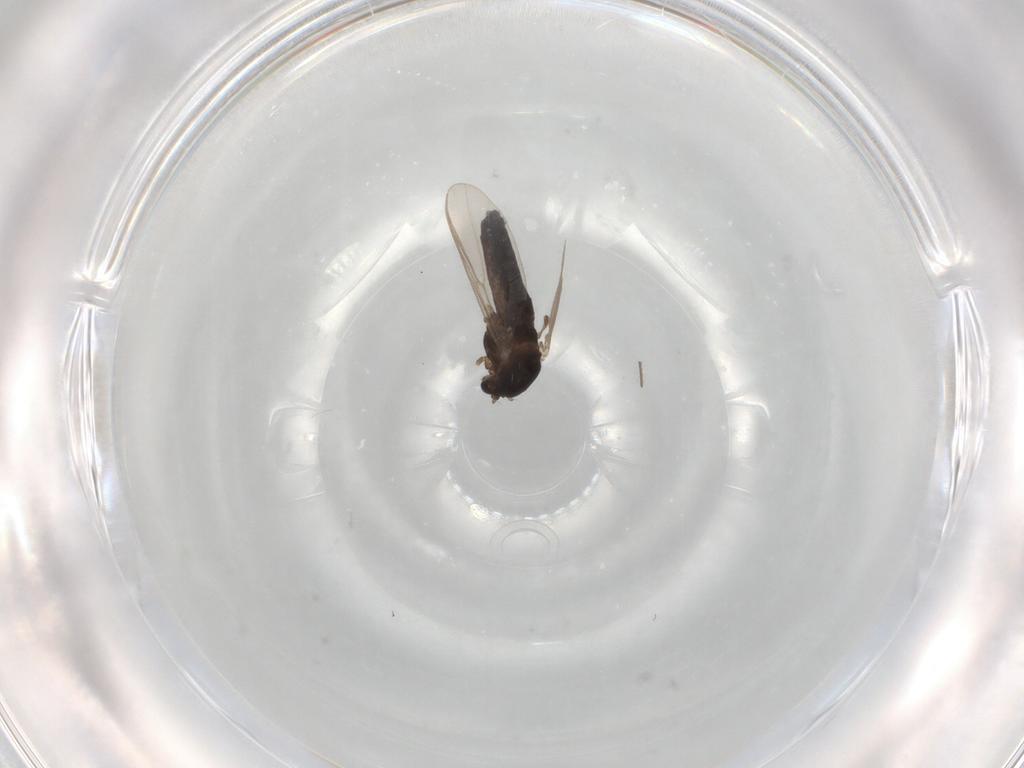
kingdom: Animalia
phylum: Arthropoda
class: Insecta
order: Diptera
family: Chironomidae
